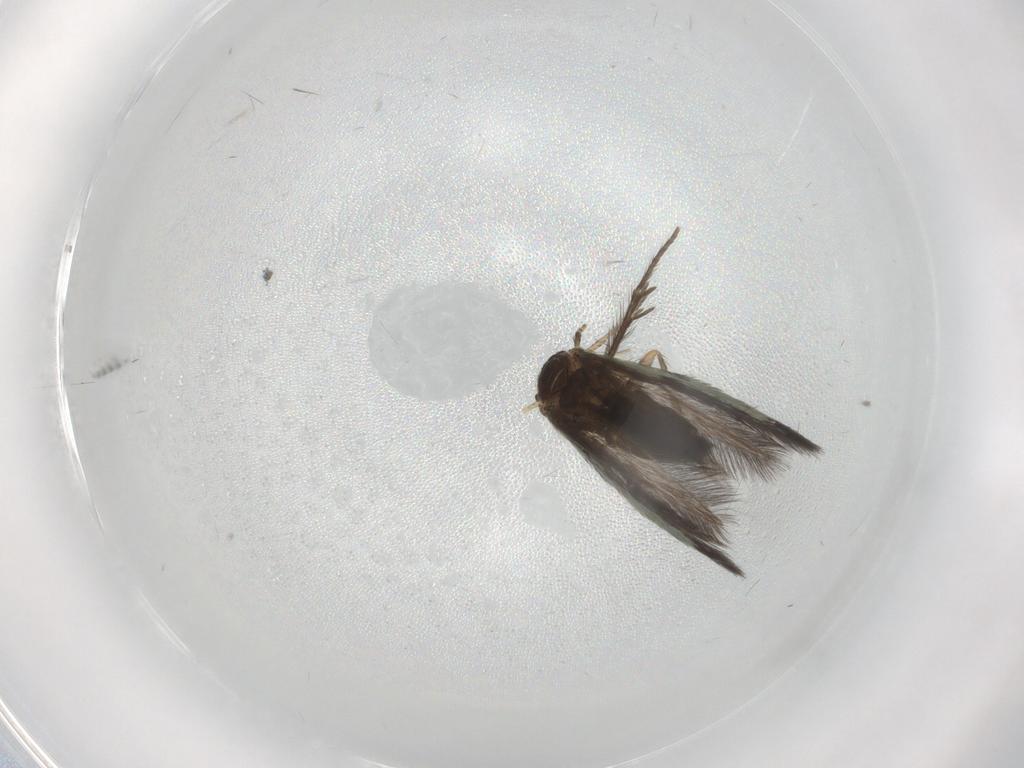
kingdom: Animalia
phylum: Arthropoda
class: Insecta
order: Trichoptera
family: Hydroptilidae
